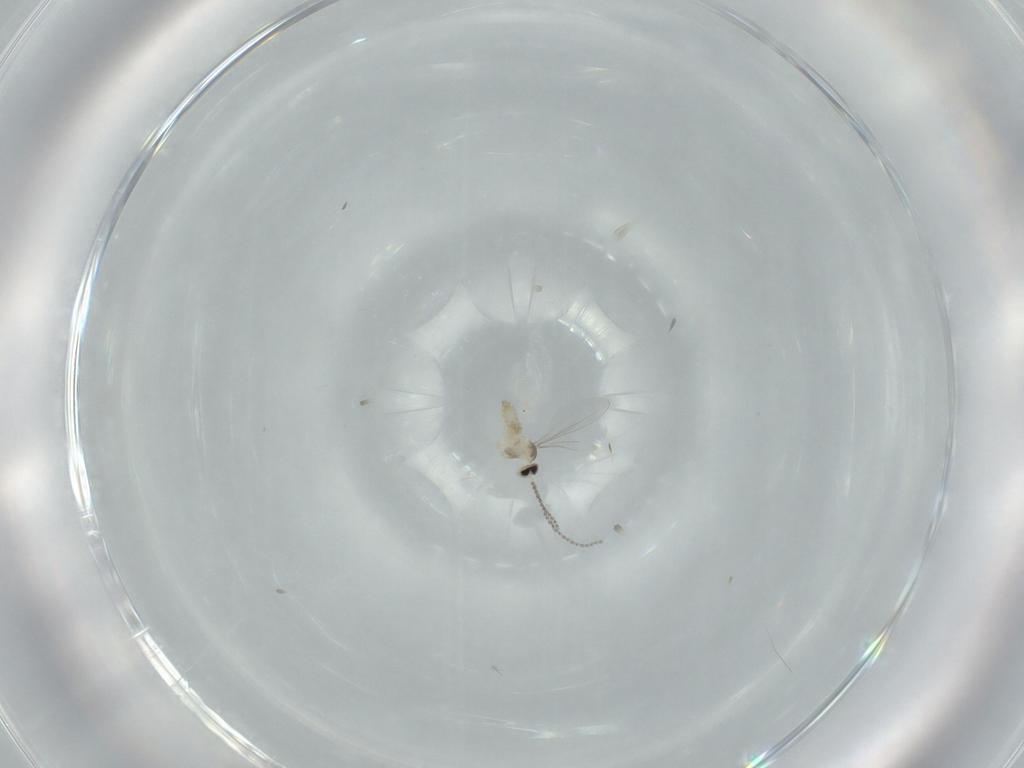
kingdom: Animalia
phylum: Arthropoda
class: Insecta
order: Diptera
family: Cecidomyiidae
